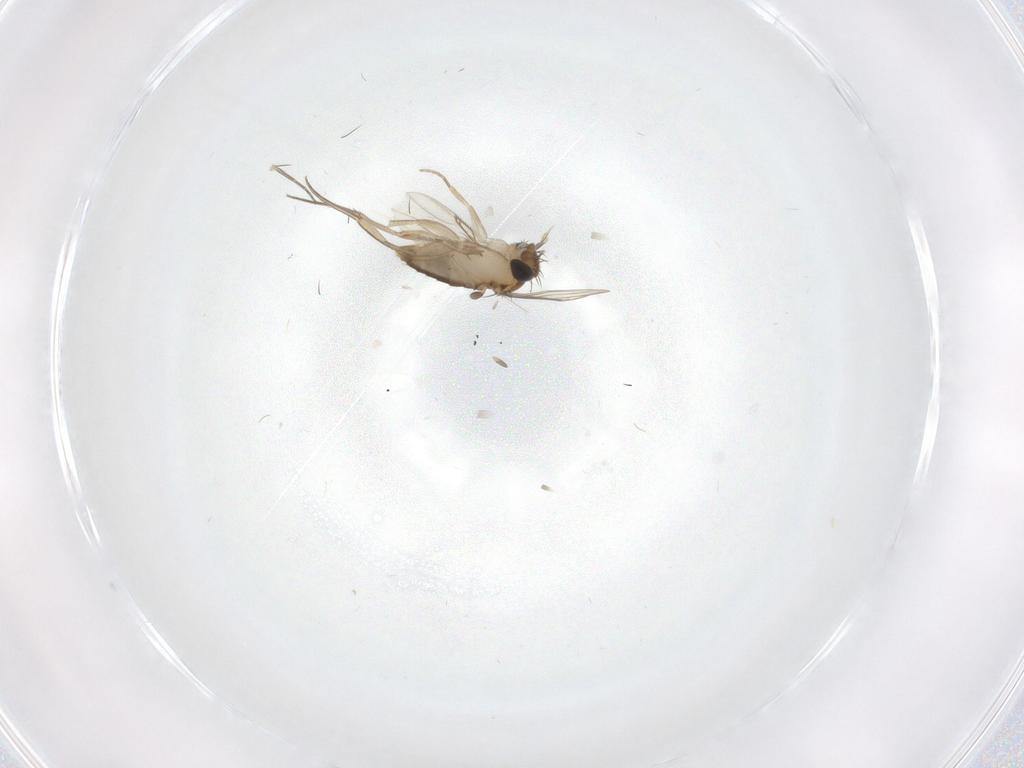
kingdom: Animalia
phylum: Arthropoda
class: Insecta
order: Diptera
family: Phoridae
